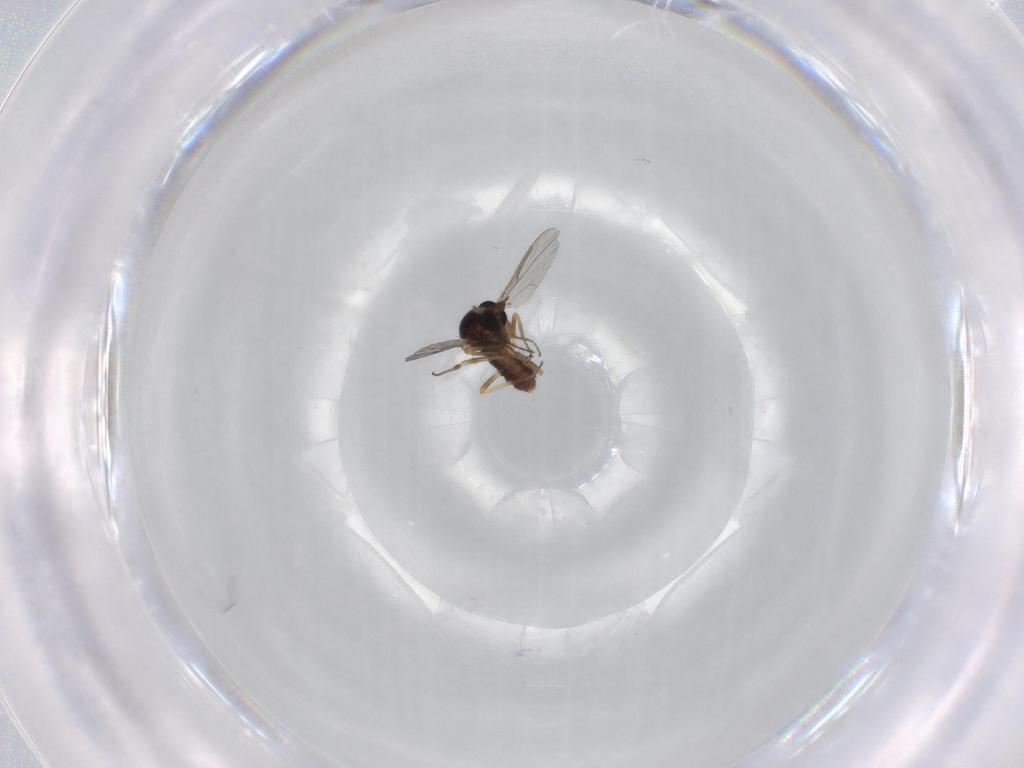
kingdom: Animalia
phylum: Arthropoda
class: Insecta
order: Diptera
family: Ceratopogonidae
